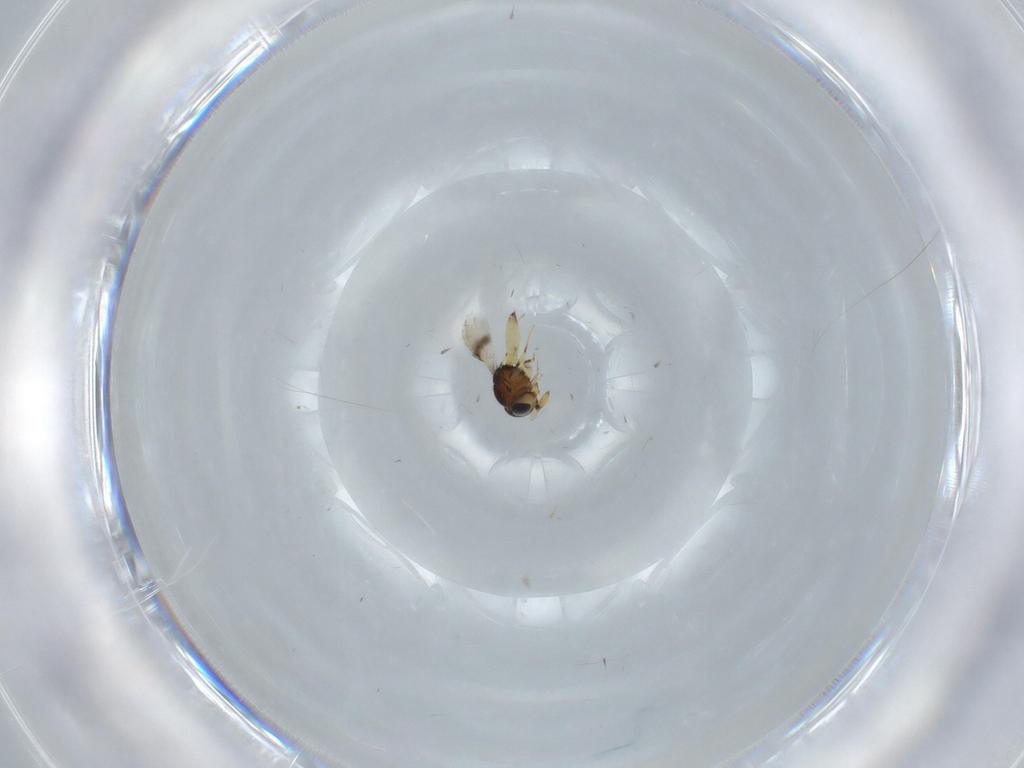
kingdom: Animalia
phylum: Arthropoda
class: Insecta
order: Hymenoptera
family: Scelionidae
